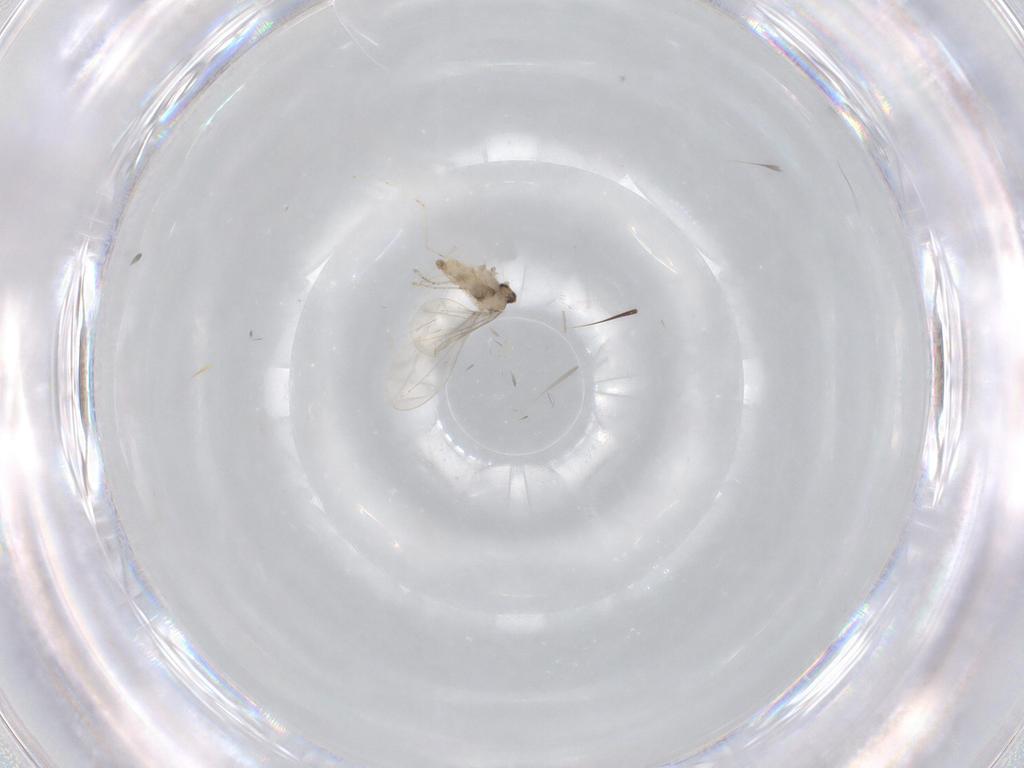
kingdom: Animalia
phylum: Arthropoda
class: Insecta
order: Diptera
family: Cecidomyiidae
